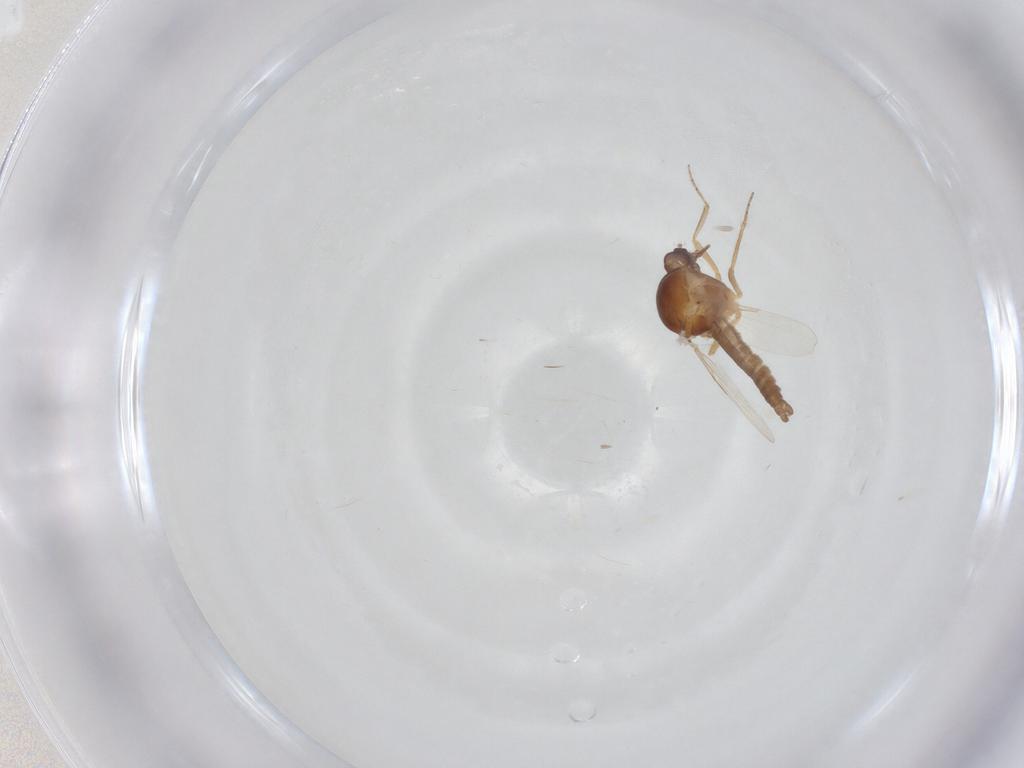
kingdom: Animalia
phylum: Arthropoda
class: Insecta
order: Diptera
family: Ceratopogonidae
